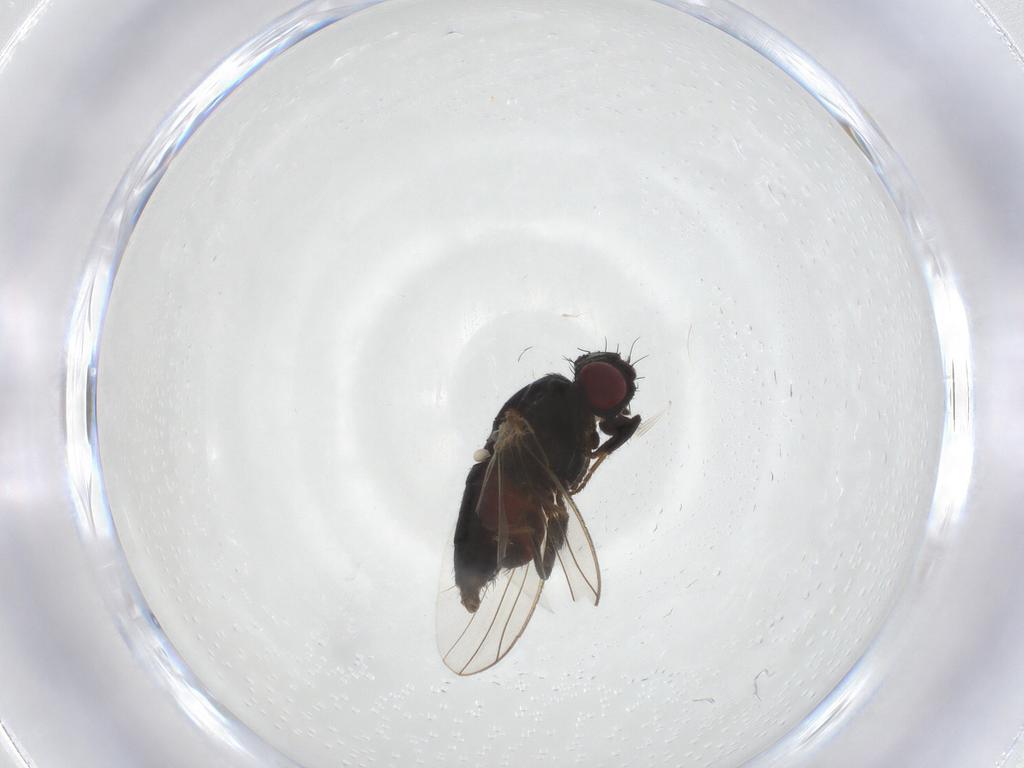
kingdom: Animalia
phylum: Arthropoda
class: Insecta
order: Diptera
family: Carnidae
